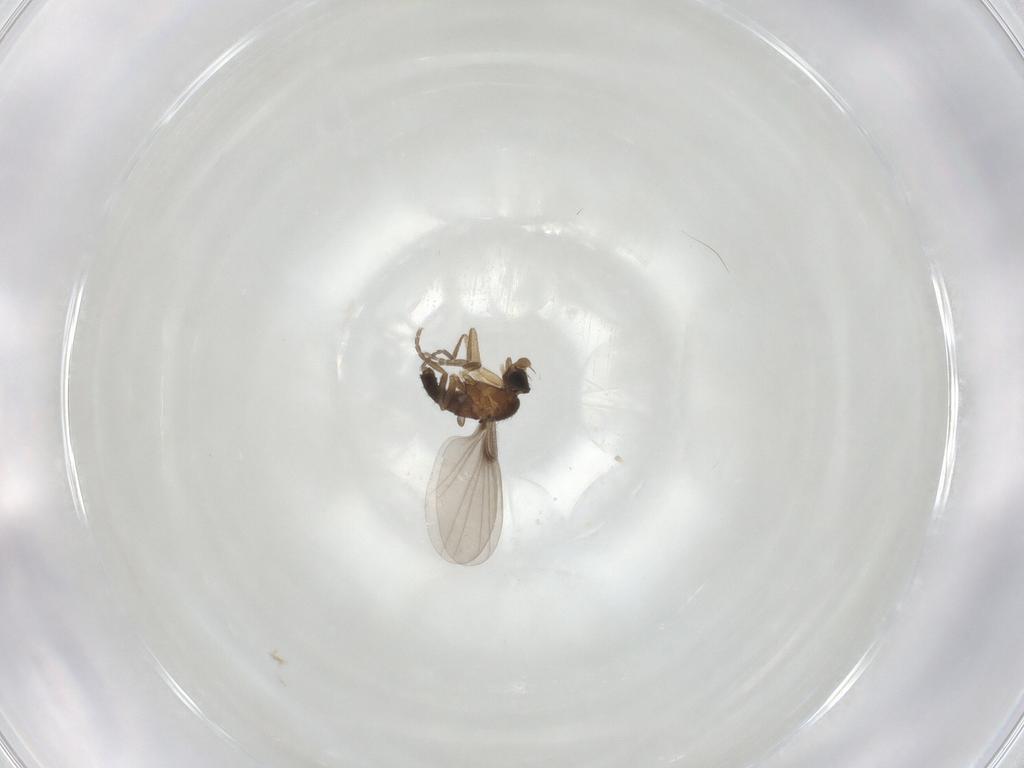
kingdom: Animalia
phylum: Arthropoda
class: Insecta
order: Diptera
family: Phoridae
